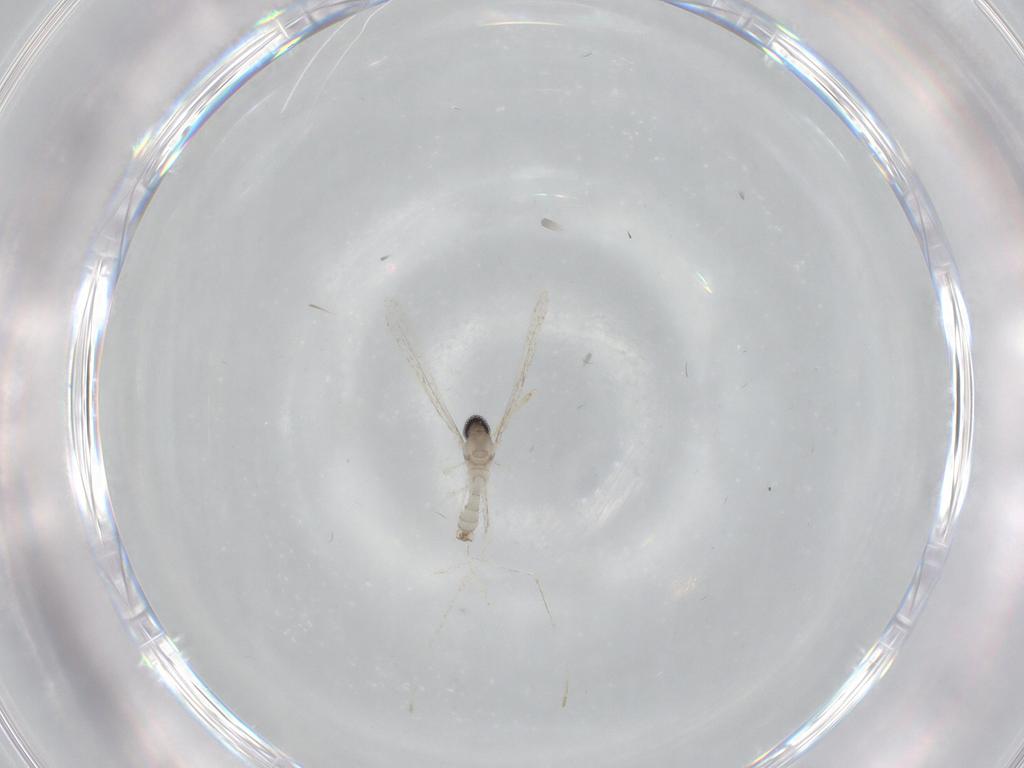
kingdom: Animalia
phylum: Arthropoda
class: Insecta
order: Diptera
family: Cecidomyiidae
